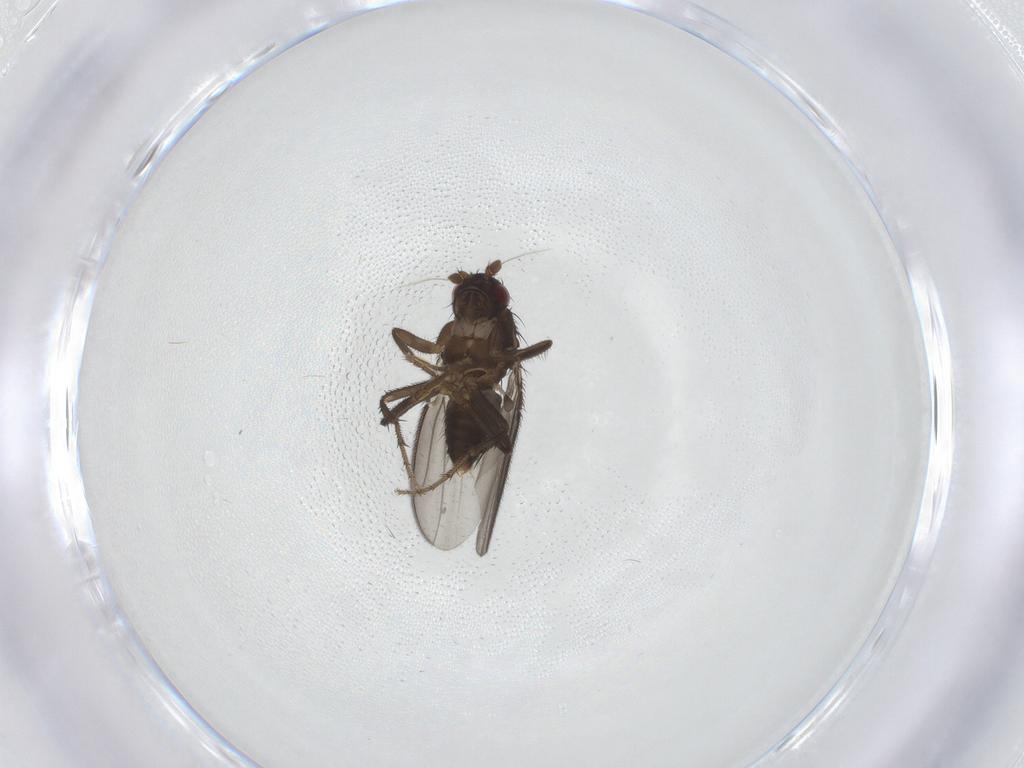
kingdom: Animalia
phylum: Arthropoda
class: Insecta
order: Diptera
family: Sphaeroceridae
